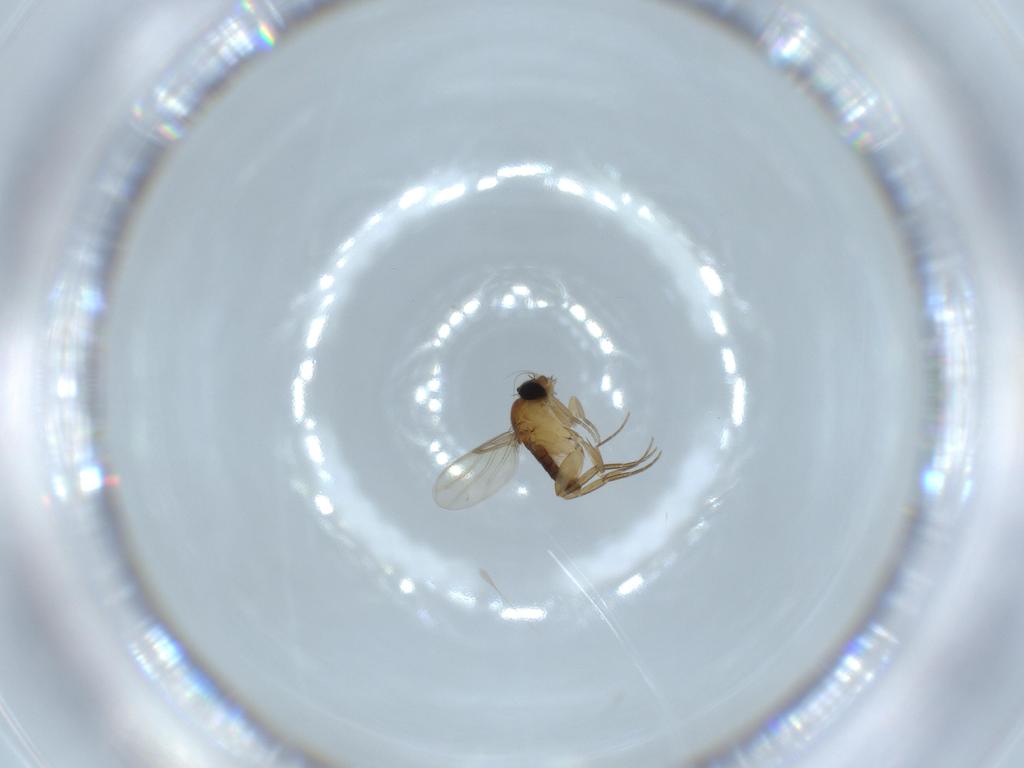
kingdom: Animalia
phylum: Arthropoda
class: Insecta
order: Diptera
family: Phoridae
